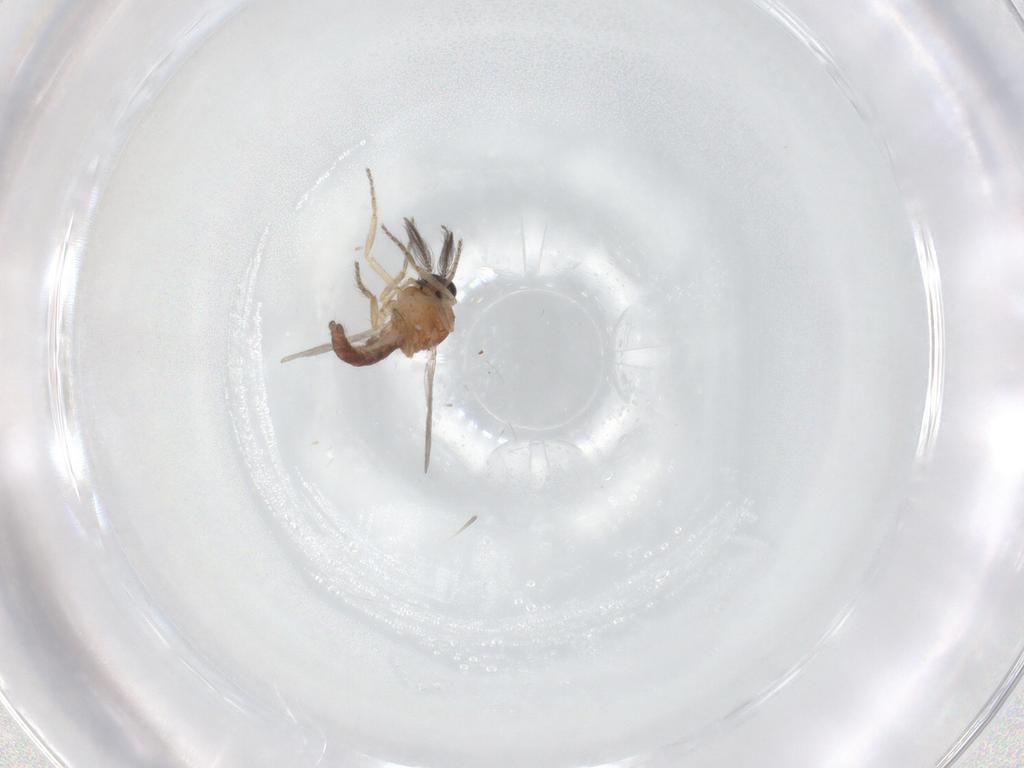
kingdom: Animalia
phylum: Arthropoda
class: Insecta
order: Diptera
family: Ceratopogonidae
